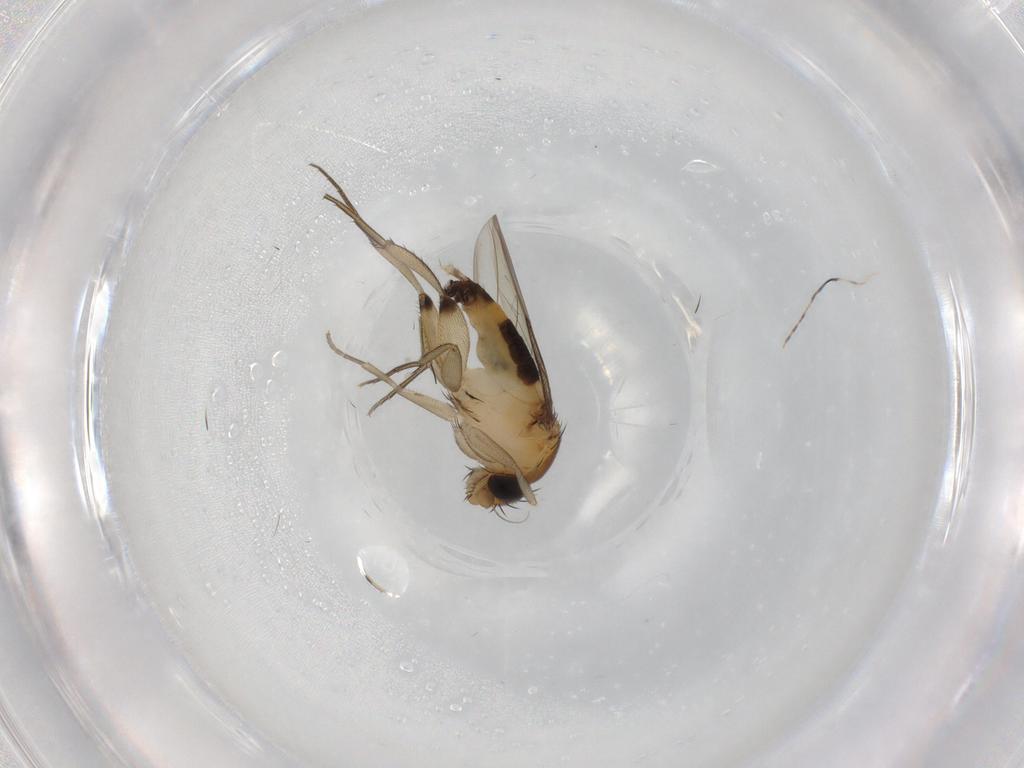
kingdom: Animalia
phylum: Arthropoda
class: Insecta
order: Diptera
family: Phoridae
